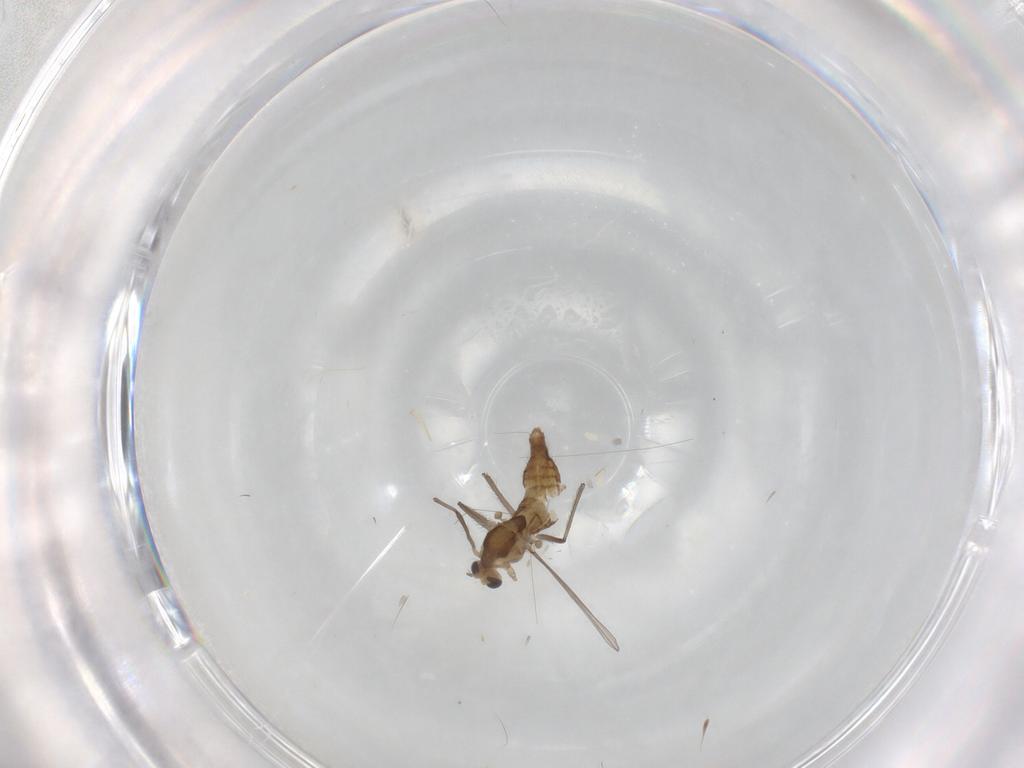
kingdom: Animalia
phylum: Arthropoda
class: Insecta
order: Diptera
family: Chironomidae
